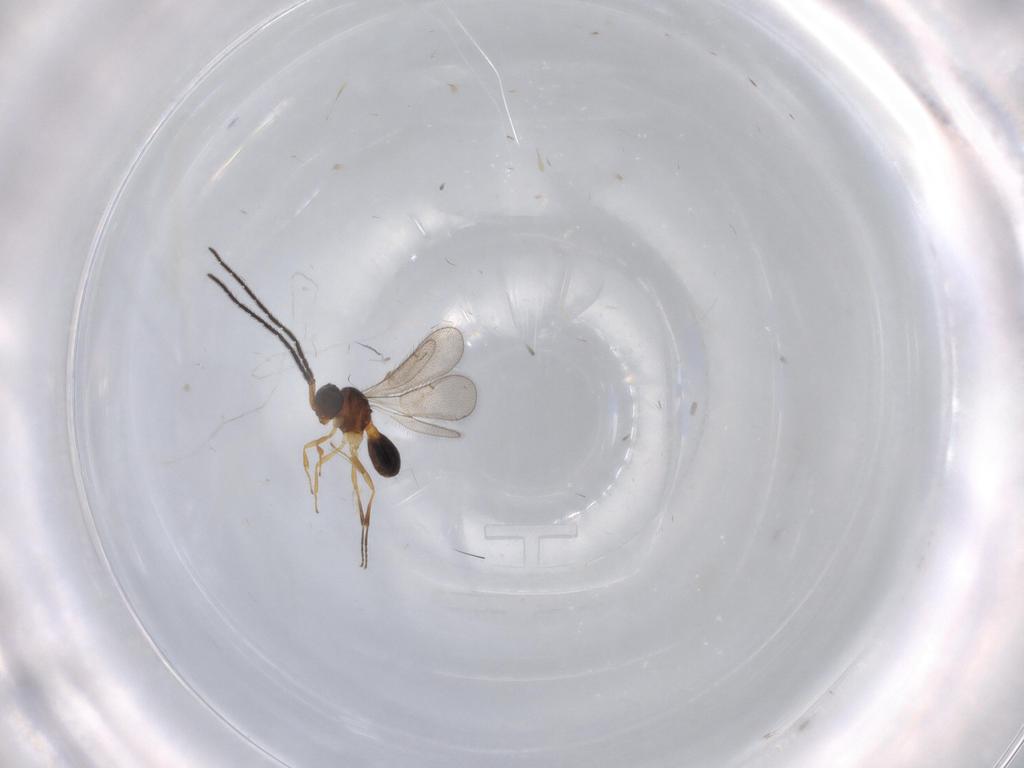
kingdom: Animalia
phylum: Arthropoda
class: Insecta
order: Hymenoptera
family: Scelionidae
